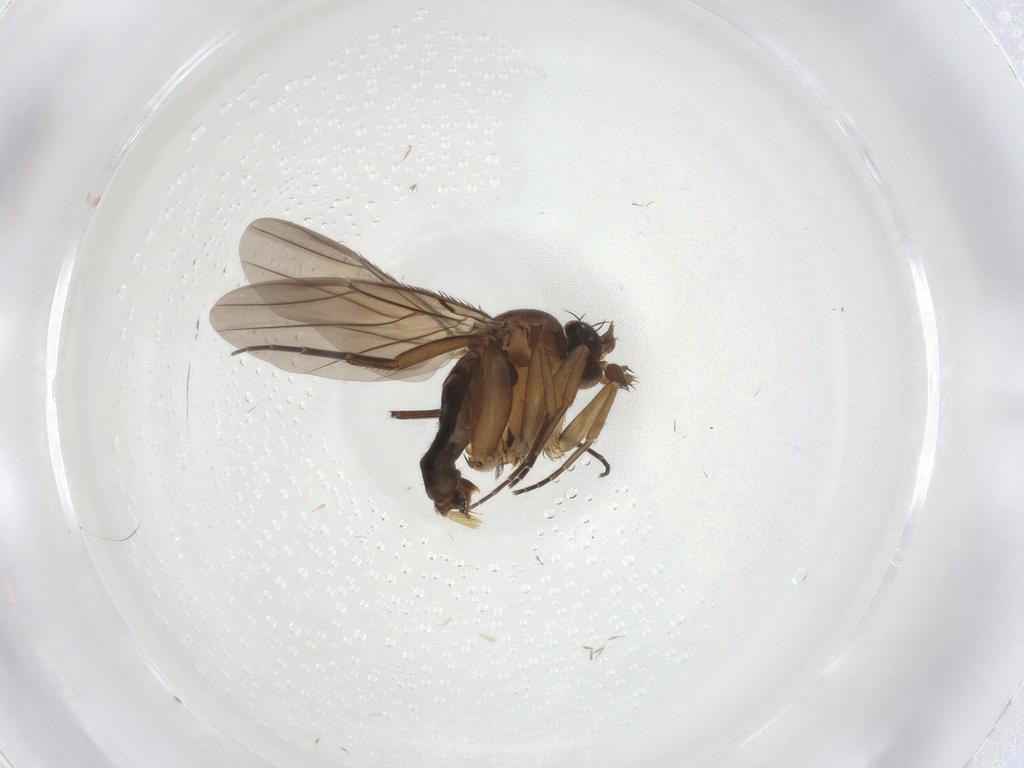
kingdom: Animalia
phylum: Arthropoda
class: Insecta
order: Diptera
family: Phoridae
